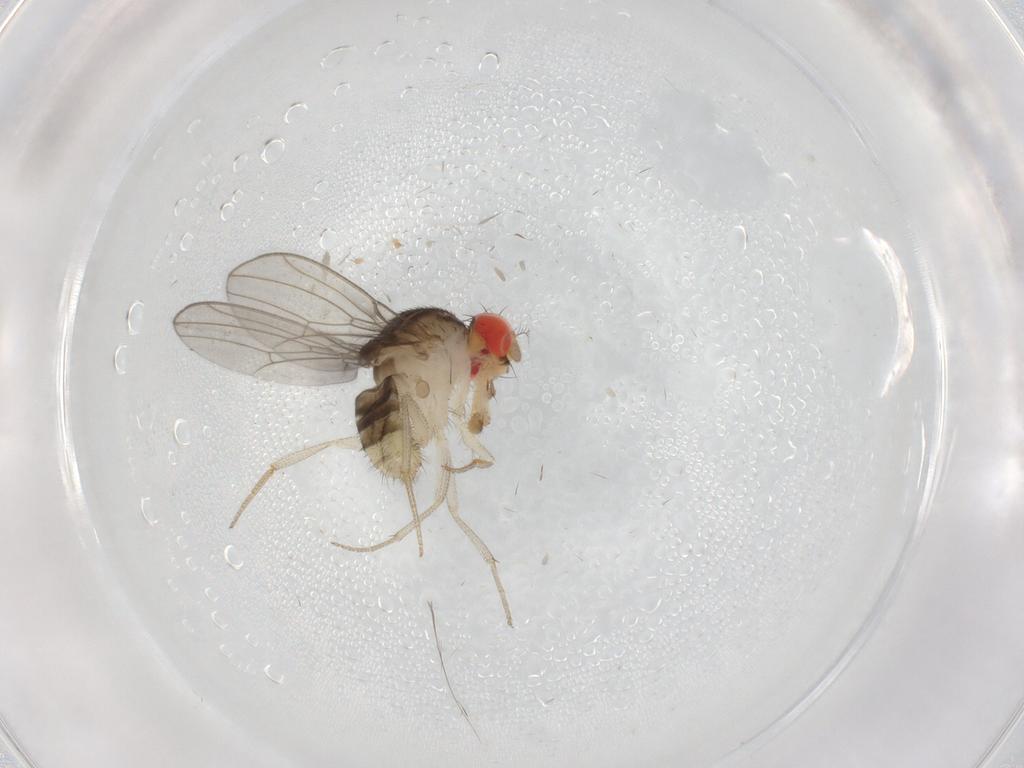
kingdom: Animalia
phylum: Arthropoda
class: Insecta
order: Diptera
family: Drosophilidae
